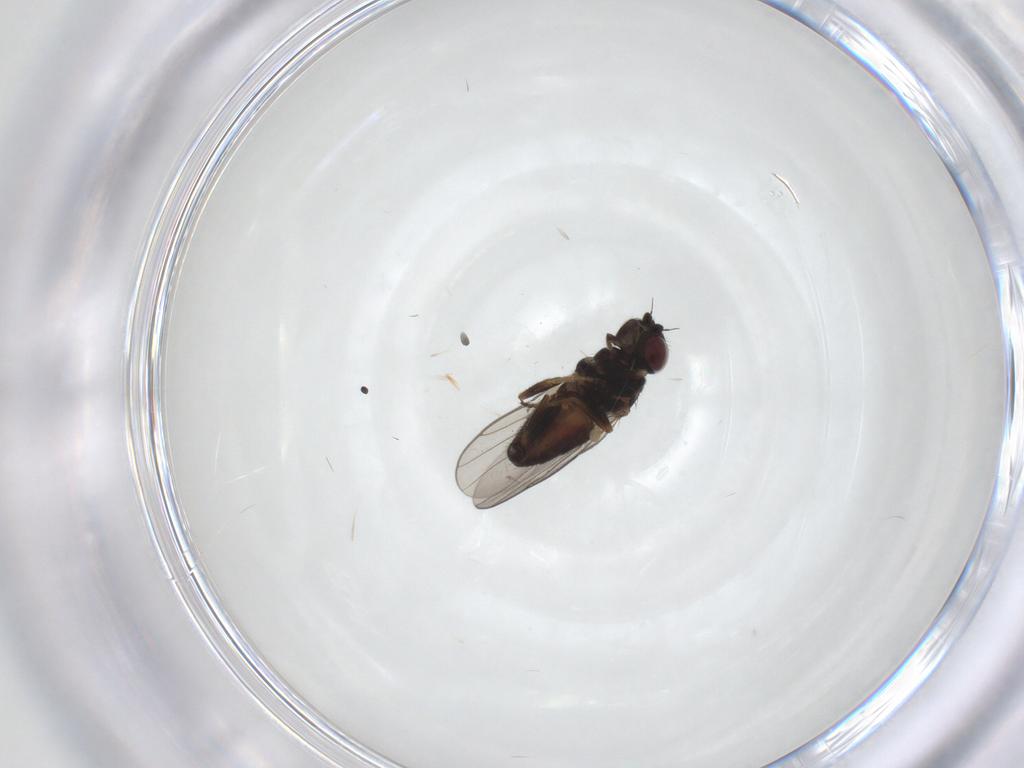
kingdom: Animalia
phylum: Arthropoda
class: Insecta
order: Diptera
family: Chloropidae
